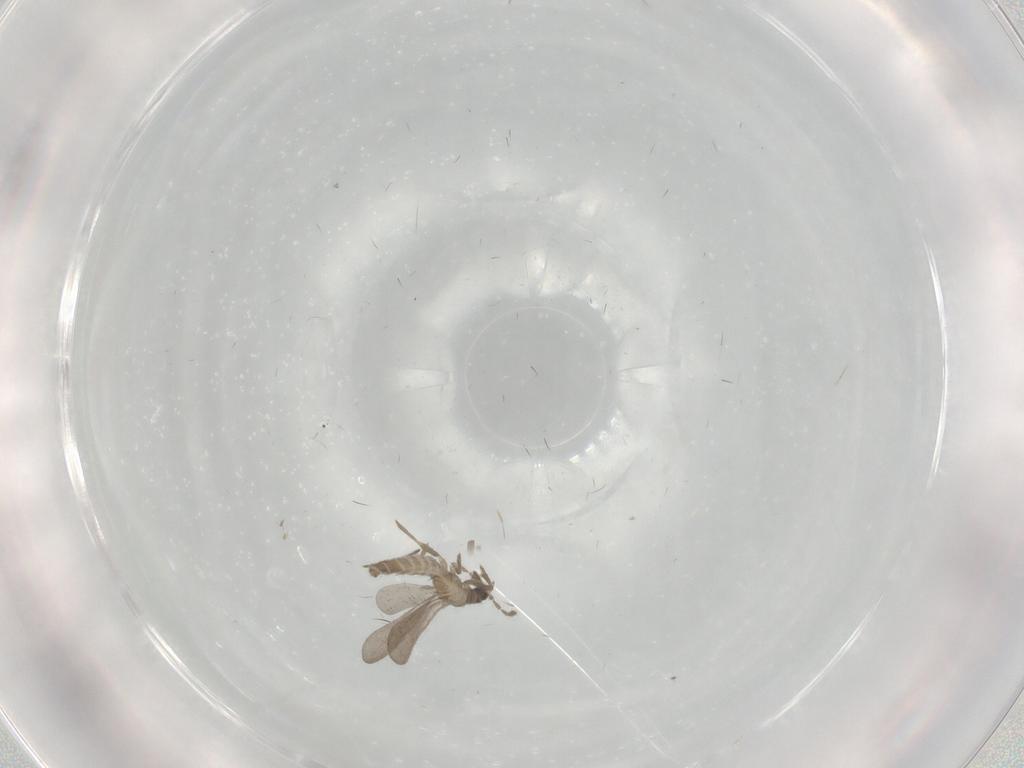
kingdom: Animalia
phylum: Arthropoda
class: Insecta
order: Hemiptera
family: Enicocephalidae
